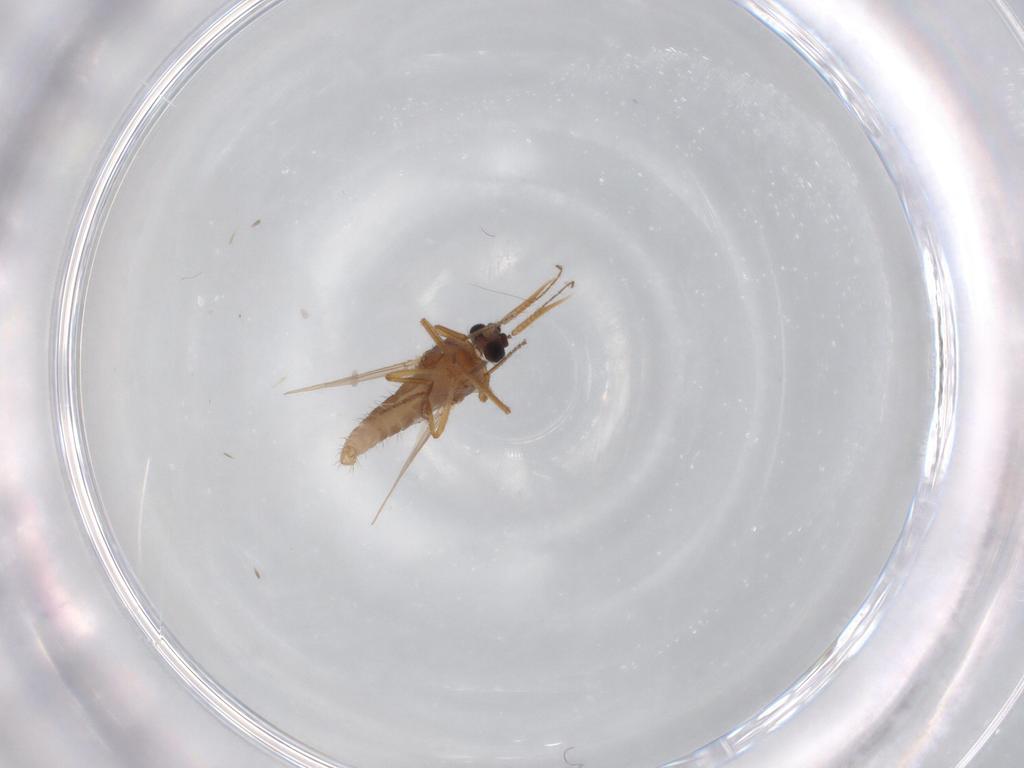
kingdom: Animalia
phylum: Arthropoda
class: Insecta
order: Diptera
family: Ceratopogonidae
